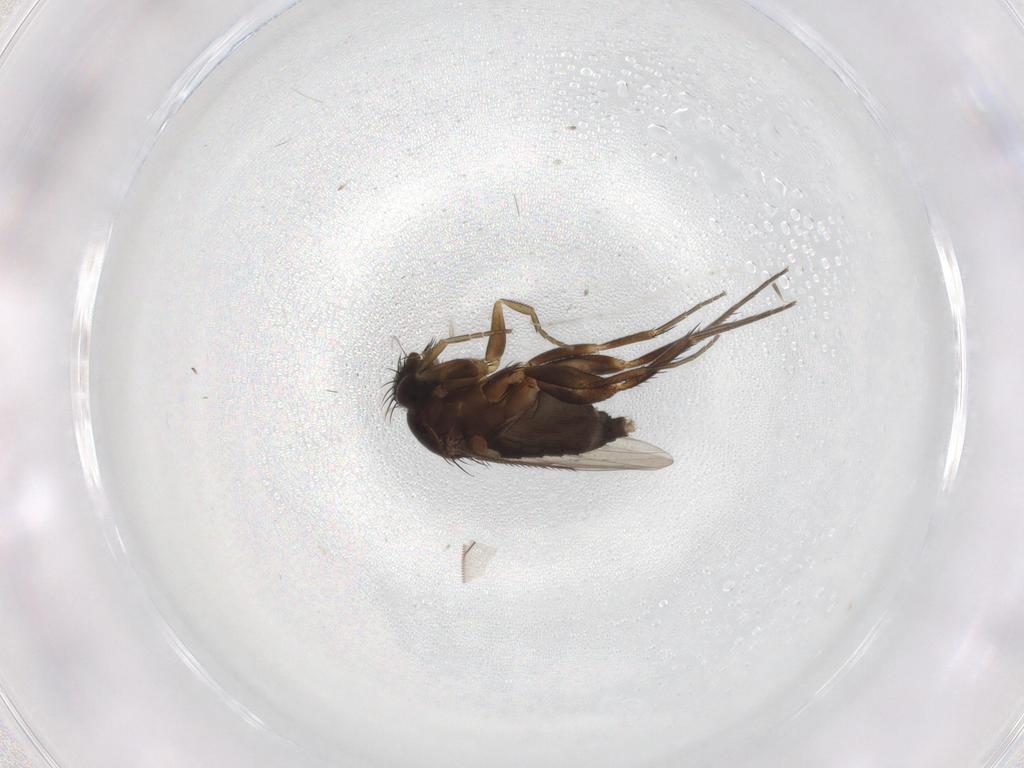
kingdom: Animalia
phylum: Arthropoda
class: Insecta
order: Diptera
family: Phoridae
